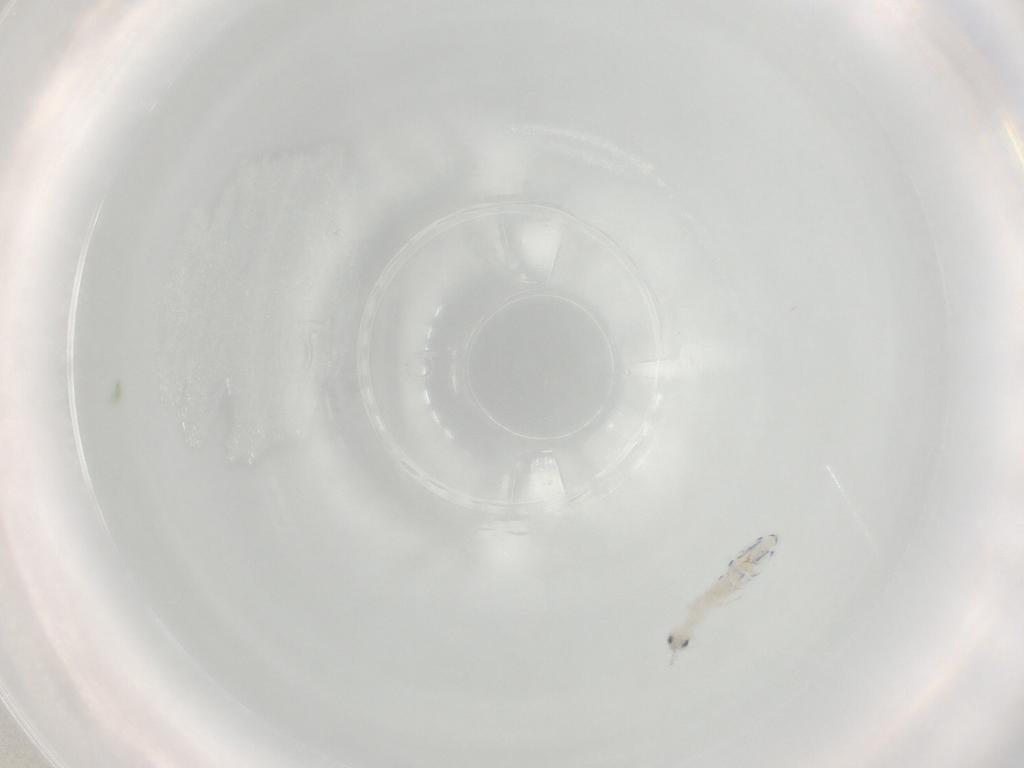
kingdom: Animalia
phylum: Arthropoda
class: Collembola
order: Entomobryomorpha
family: Entomobryidae
